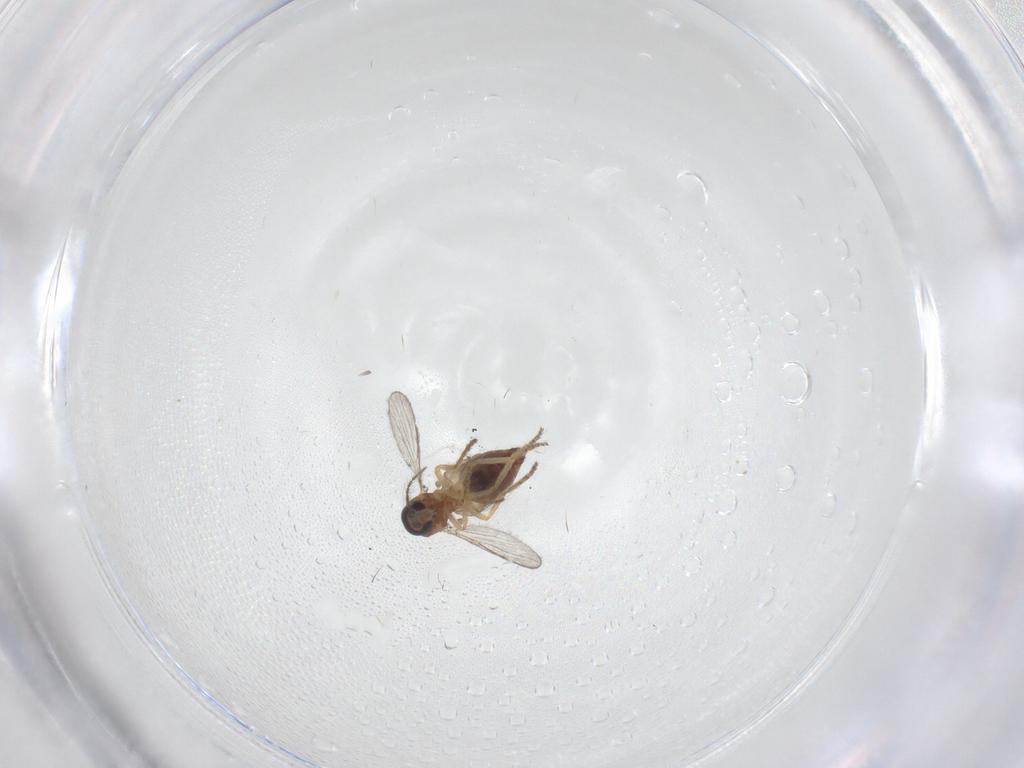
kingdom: Animalia
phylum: Arthropoda
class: Insecta
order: Diptera
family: Ceratopogonidae
